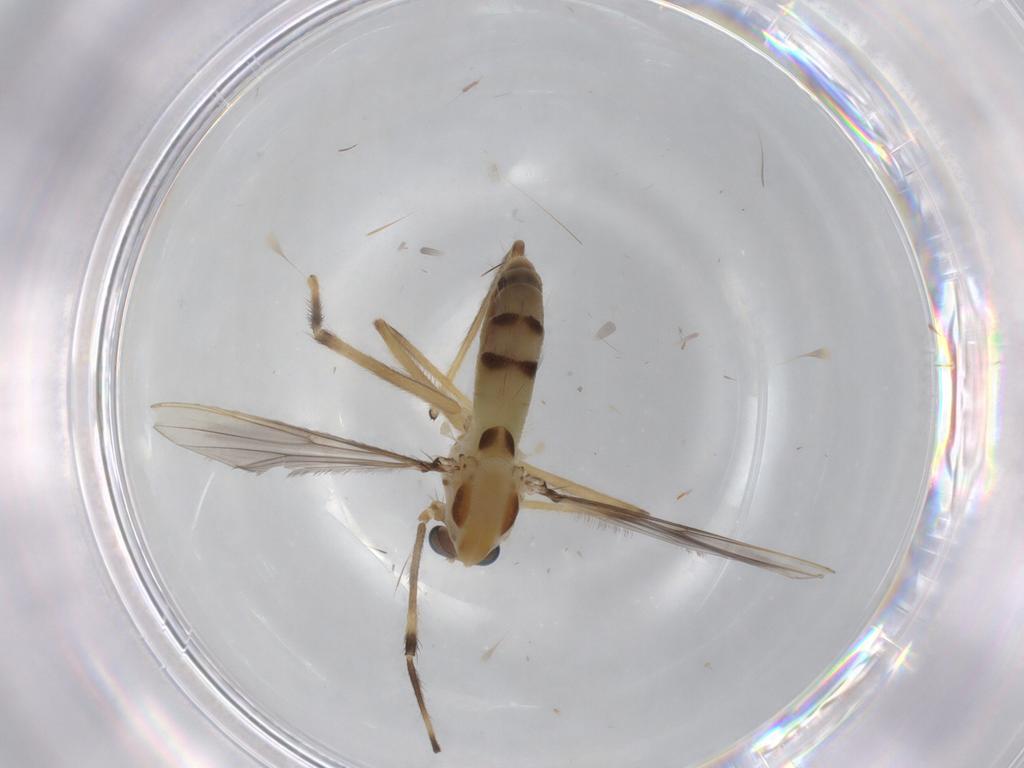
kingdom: Animalia
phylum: Arthropoda
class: Insecta
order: Diptera
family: Chironomidae
